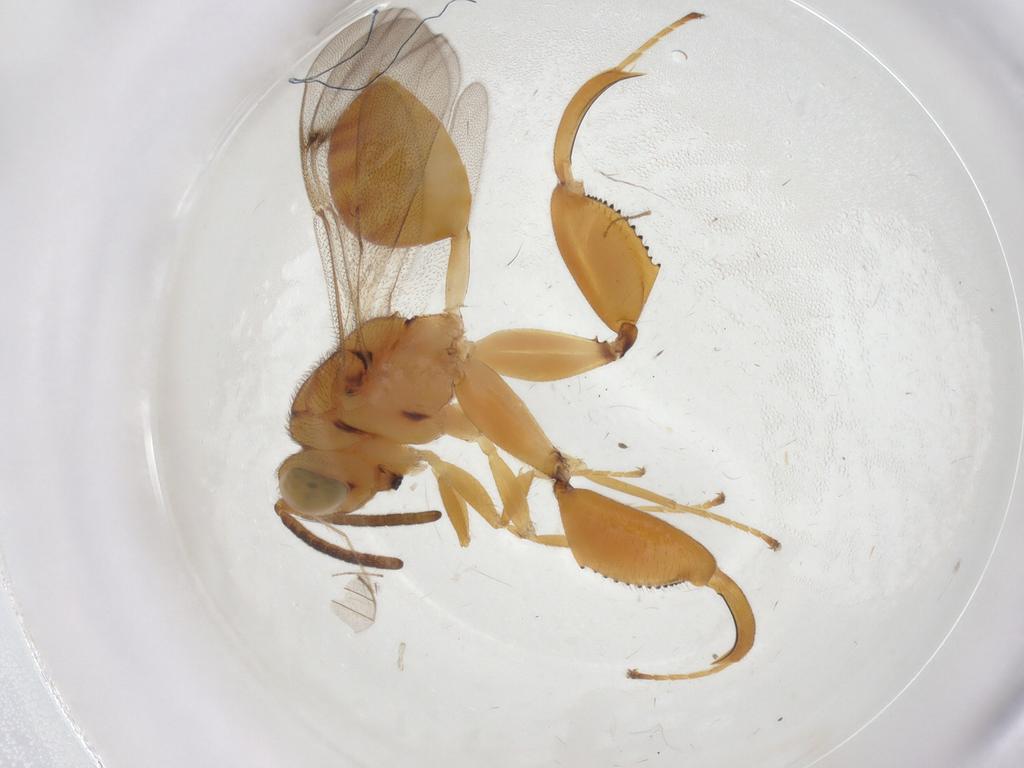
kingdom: Animalia
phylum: Arthropoda
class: Insecta
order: Hymenoptera
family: Chalcididae
